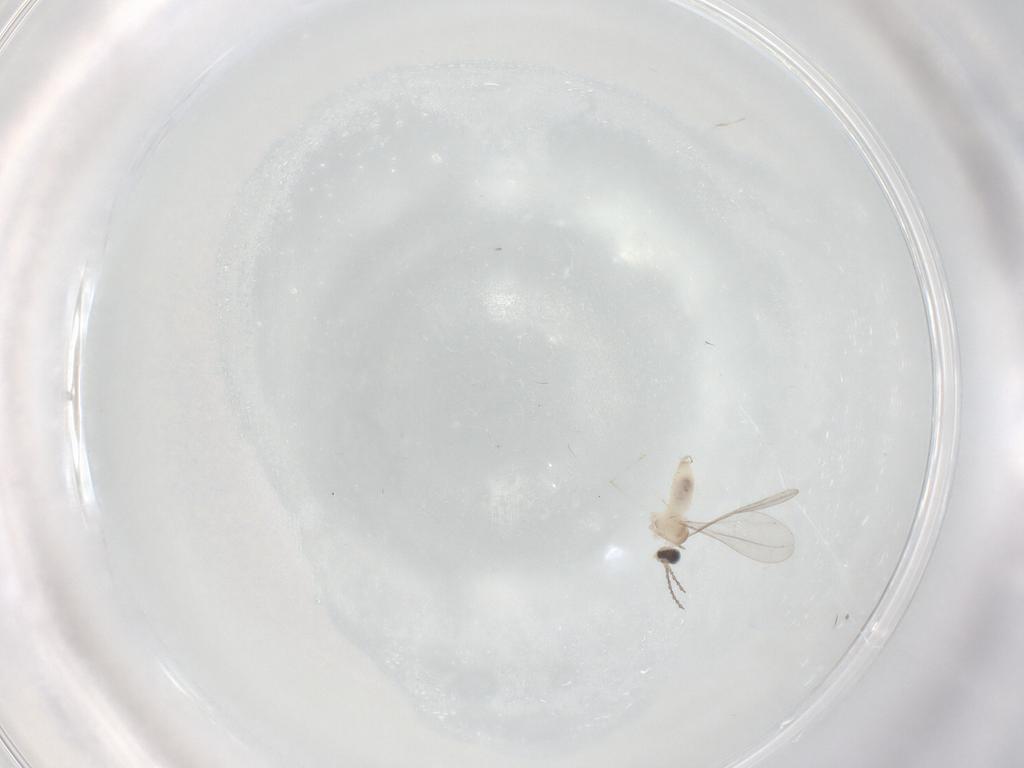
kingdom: Animalia
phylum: Arthropoda
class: Insecta
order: Diptera
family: Cecidomyiidae
